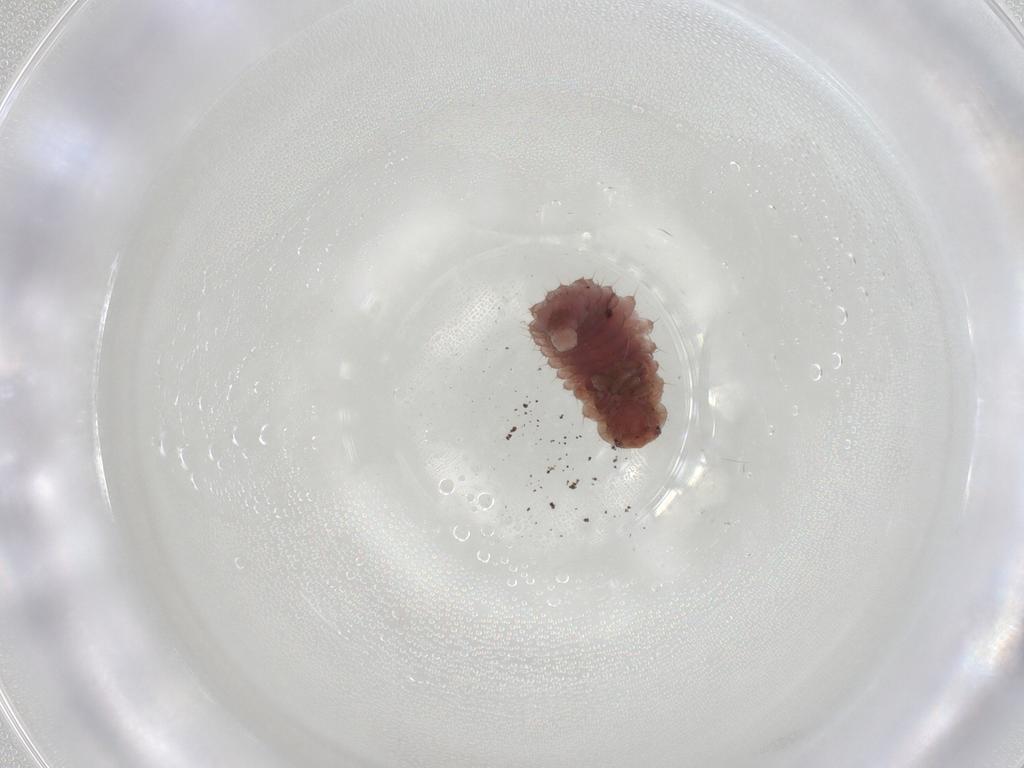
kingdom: Animalia
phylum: Arthropoda
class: Insecta
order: Coleoptera
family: Coccinellidae
